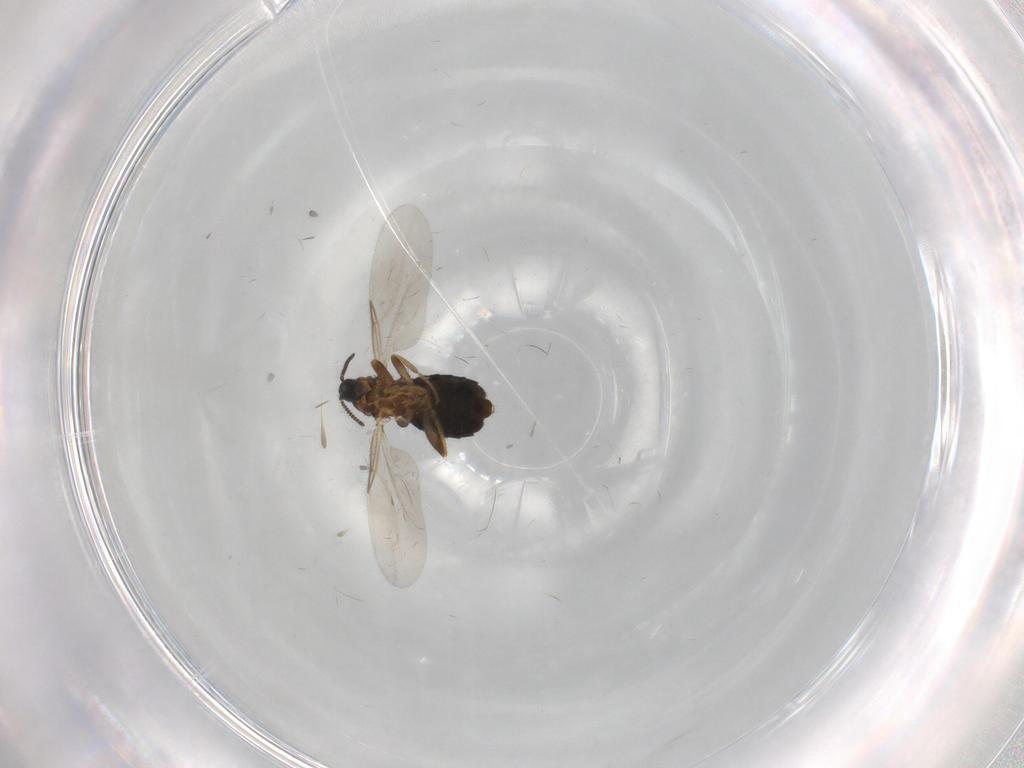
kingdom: Animalia
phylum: Arthropoda
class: Insecta
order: Diptera
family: Scatopsidae
